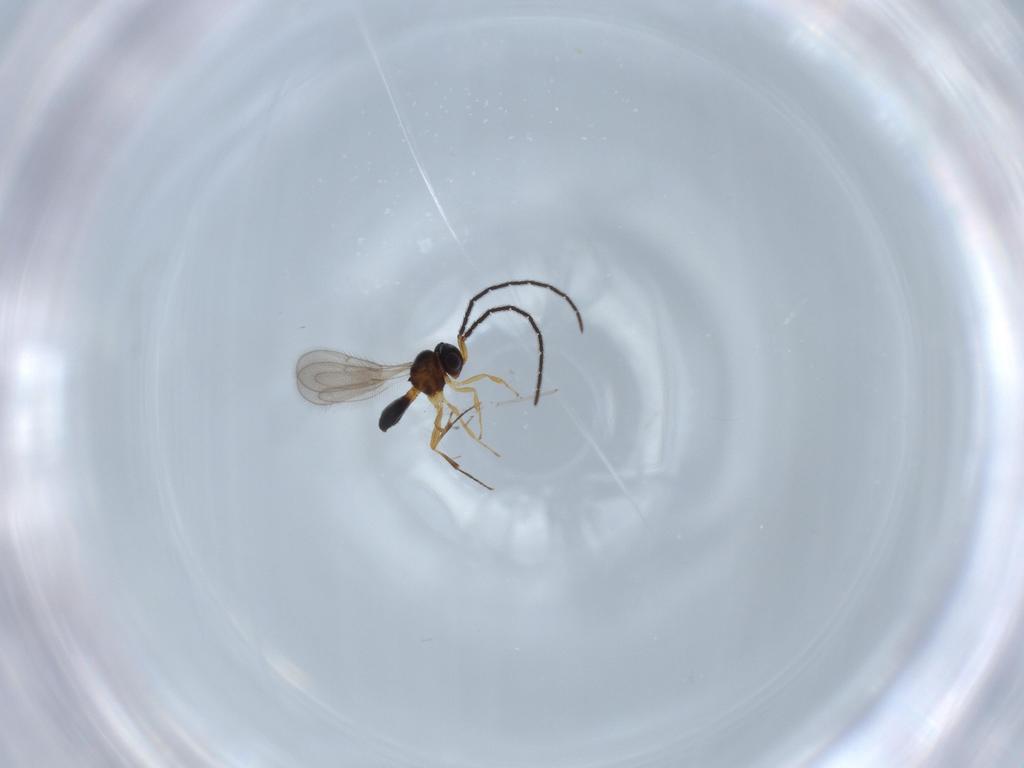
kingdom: Animalia
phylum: Arthropoda
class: Insecta
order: Hymenoptera
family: Scelionidae
